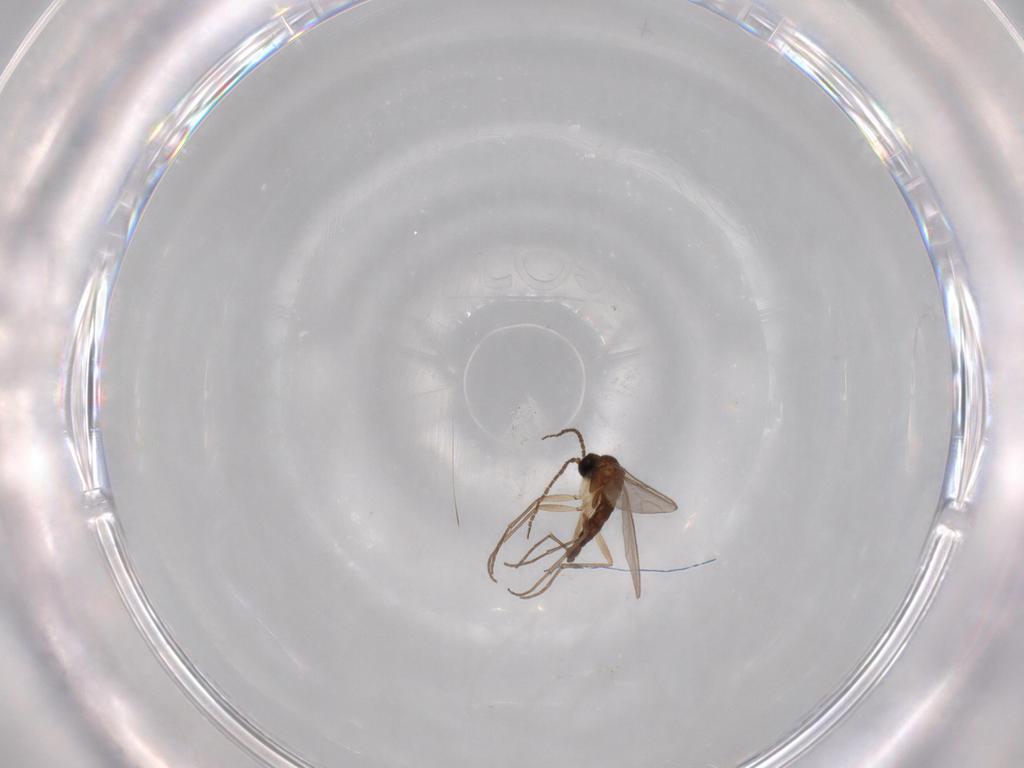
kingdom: Animalia
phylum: Arthropoda
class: Insecta
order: Diptera
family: Sciaridae
